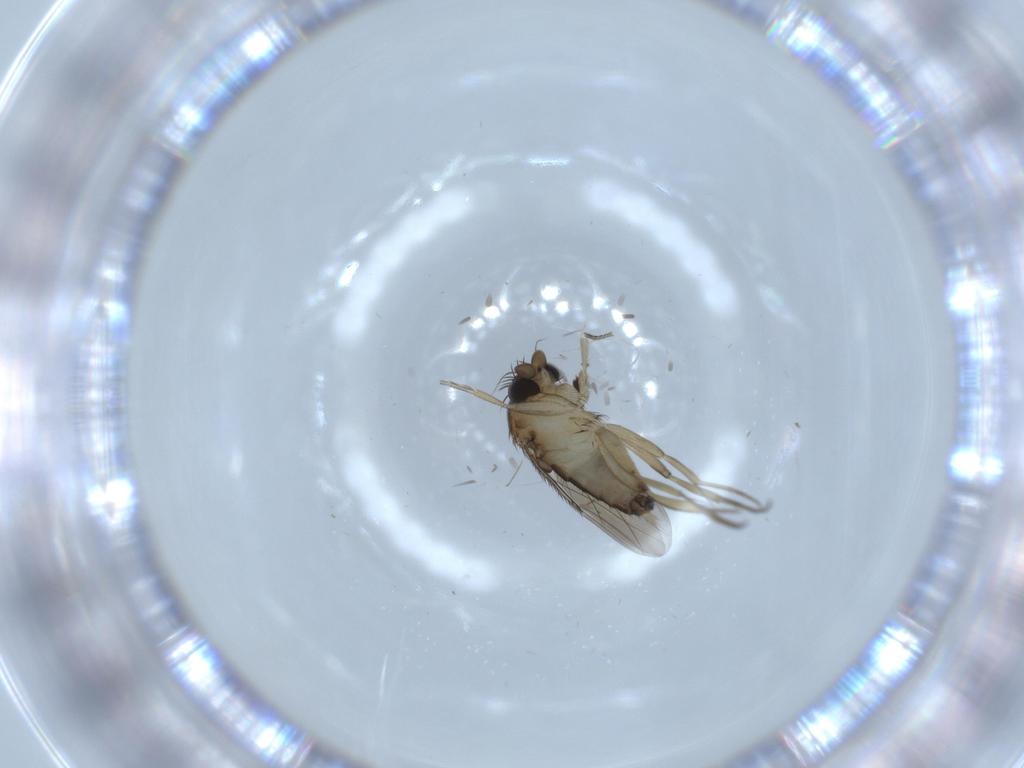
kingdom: Animalia
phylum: Arthropoda
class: Insecta
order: Diptera
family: Phoridae
